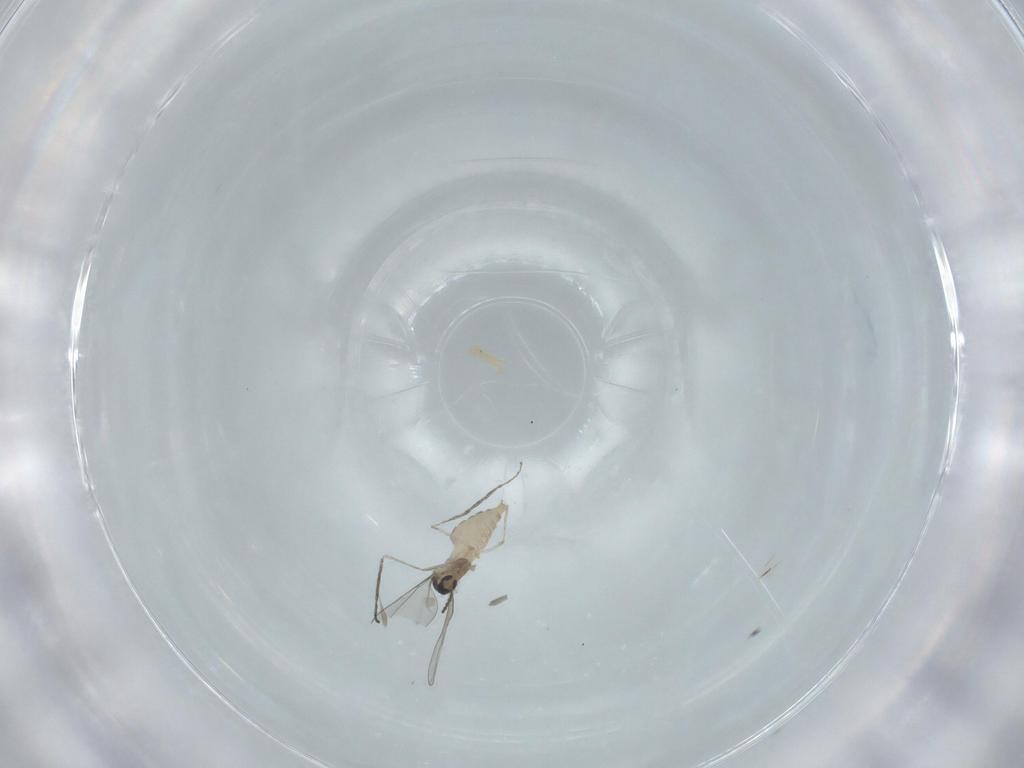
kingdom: Animalia
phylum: Arthropoda
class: Insecta
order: Diptera
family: Cecidomyiidae
